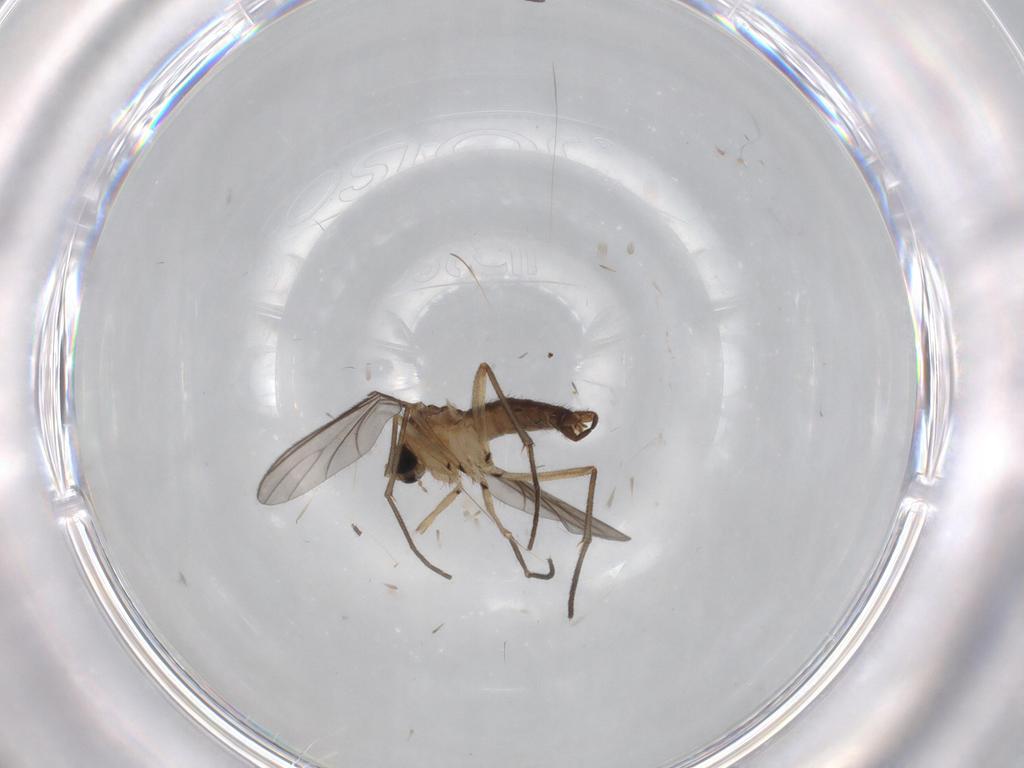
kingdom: Animalia
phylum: Arthropoda
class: Insecta
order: Diptera
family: Sciaridae
